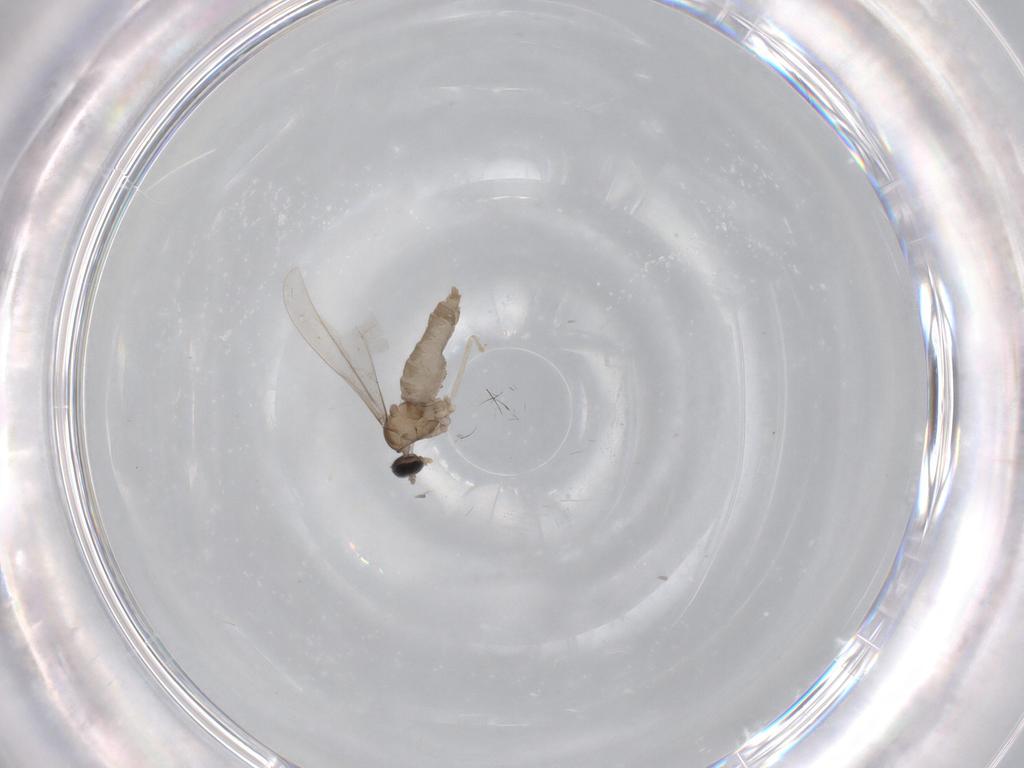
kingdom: Animalia
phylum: Arthropoda
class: Insecta
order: Diptera
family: Cecidomyiidae
